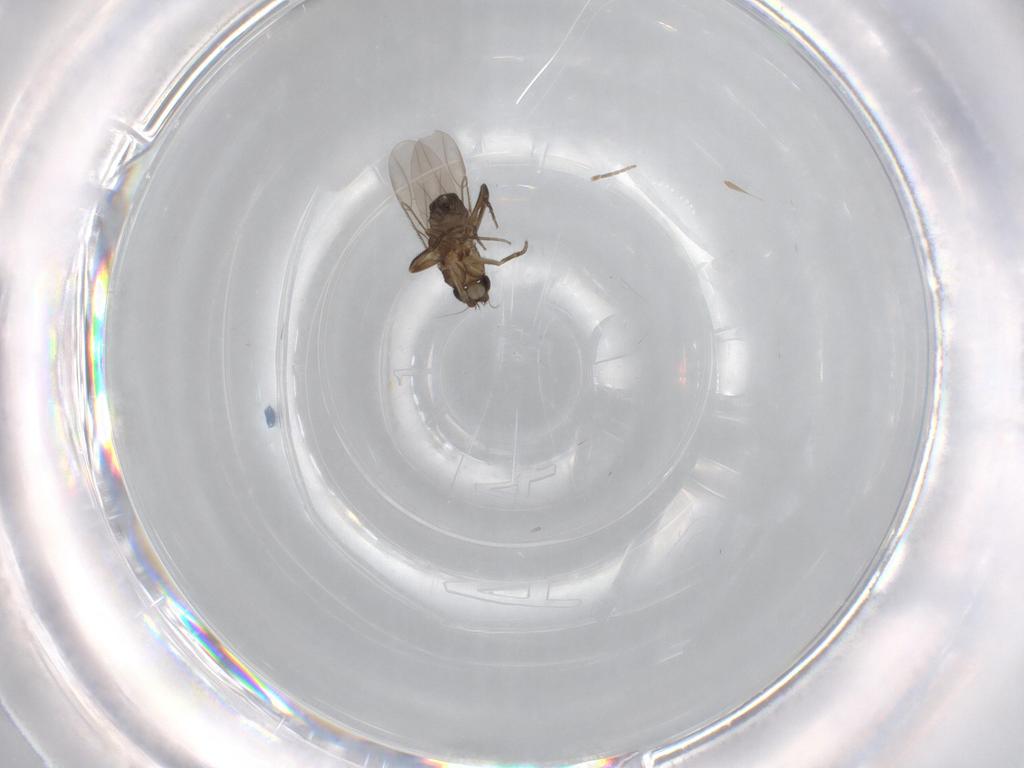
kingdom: Animalia
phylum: Arthropoda
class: Insecta
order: Diptera
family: Phoridae
